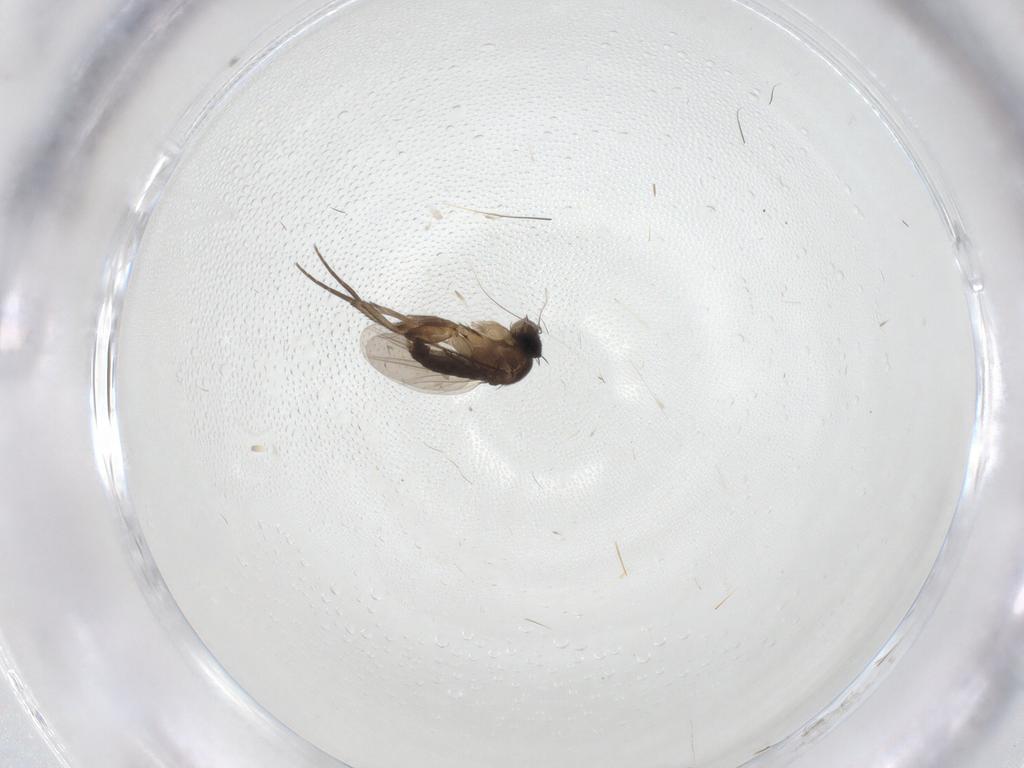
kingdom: Animalia
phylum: Arthropoda
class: Insecta
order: Diptera
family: Phoridae
